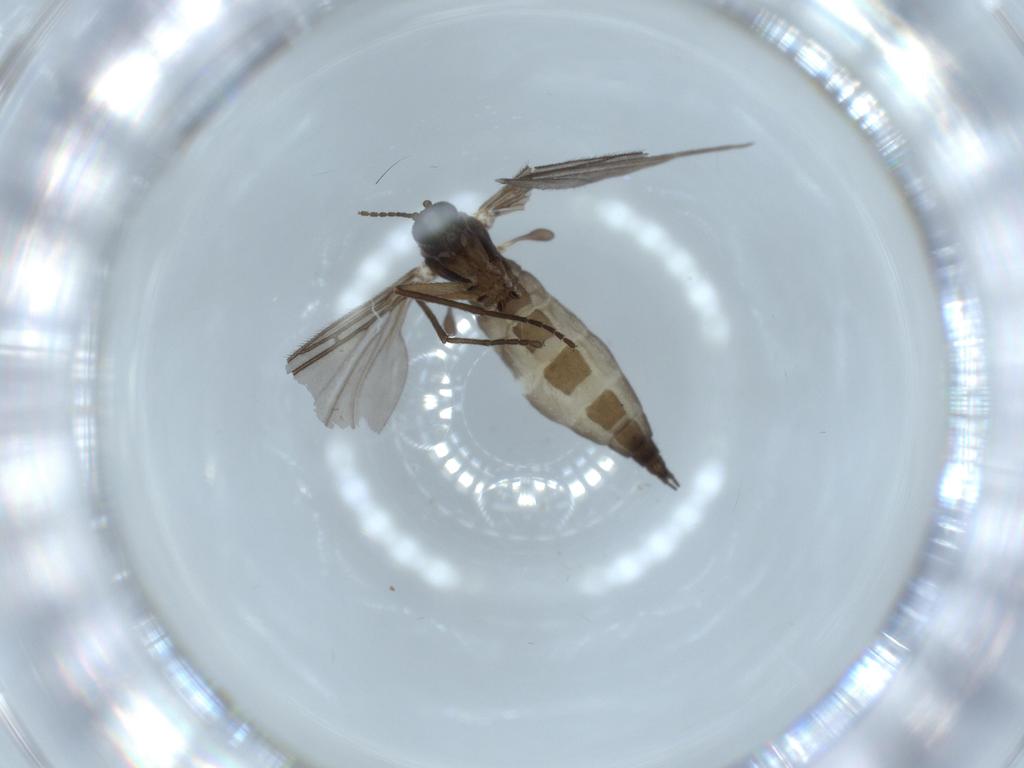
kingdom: Animalia
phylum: Arthropoda
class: Insecta
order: Diptera
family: Sciaridae
